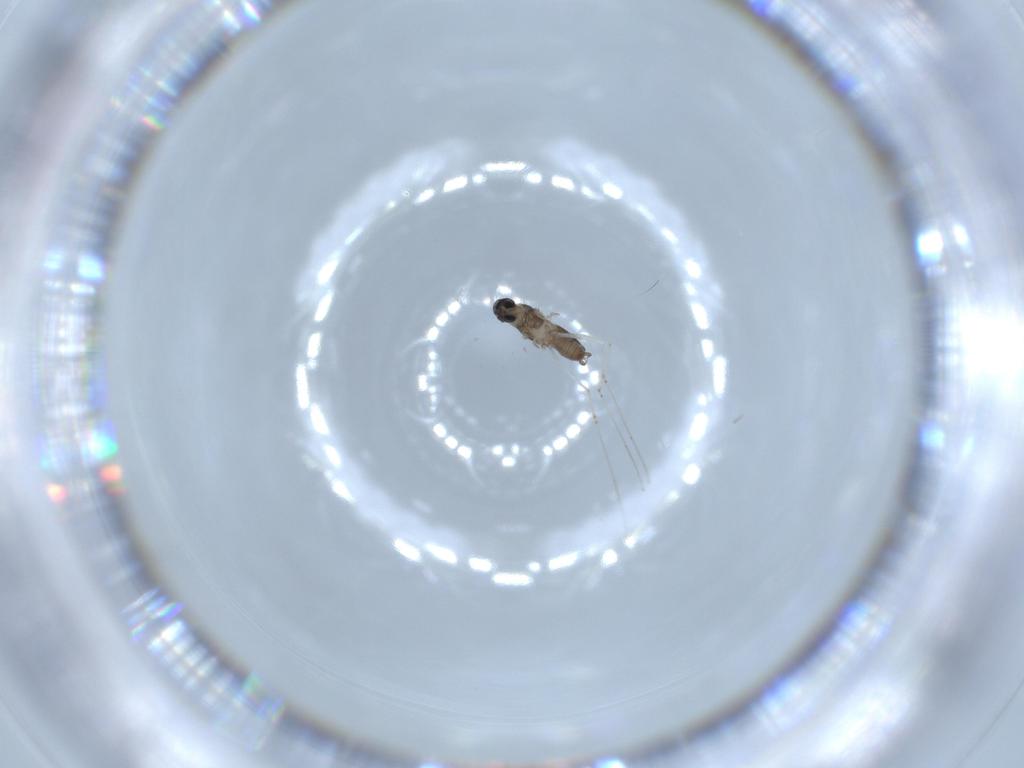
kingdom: Animalia
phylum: Arthropoda
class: Insecta
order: Diptera
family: Cecidomyiidae
